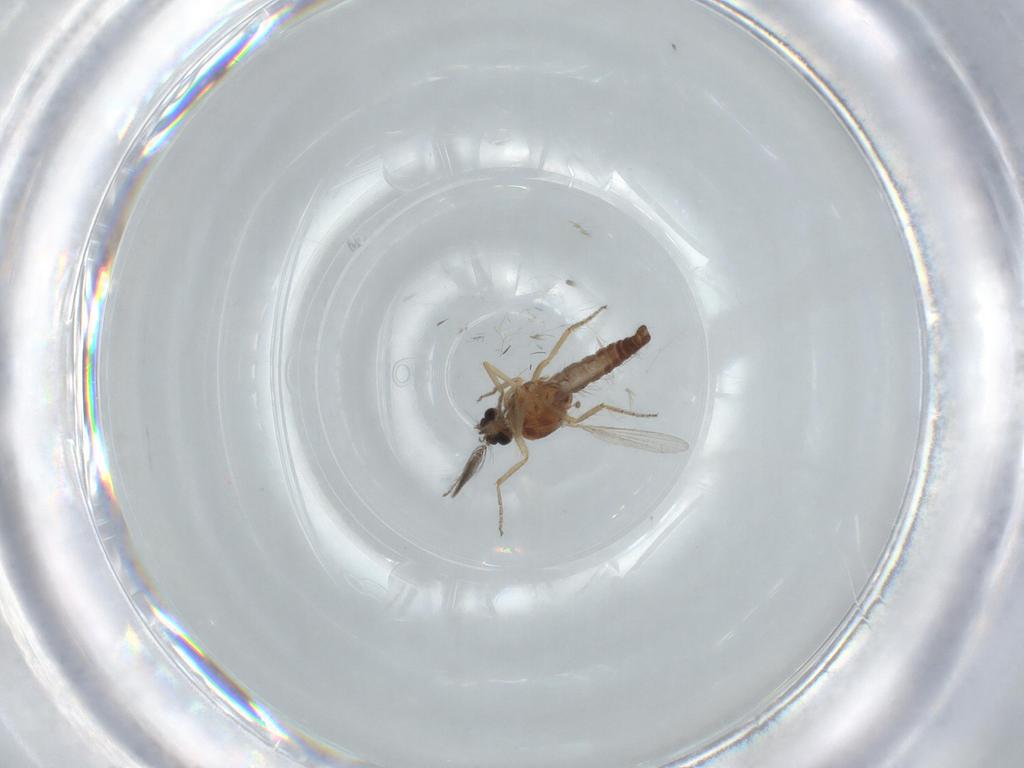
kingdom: Animalia
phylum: Arthropoda
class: Insecta
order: Diptera
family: Ceratopogonidae
